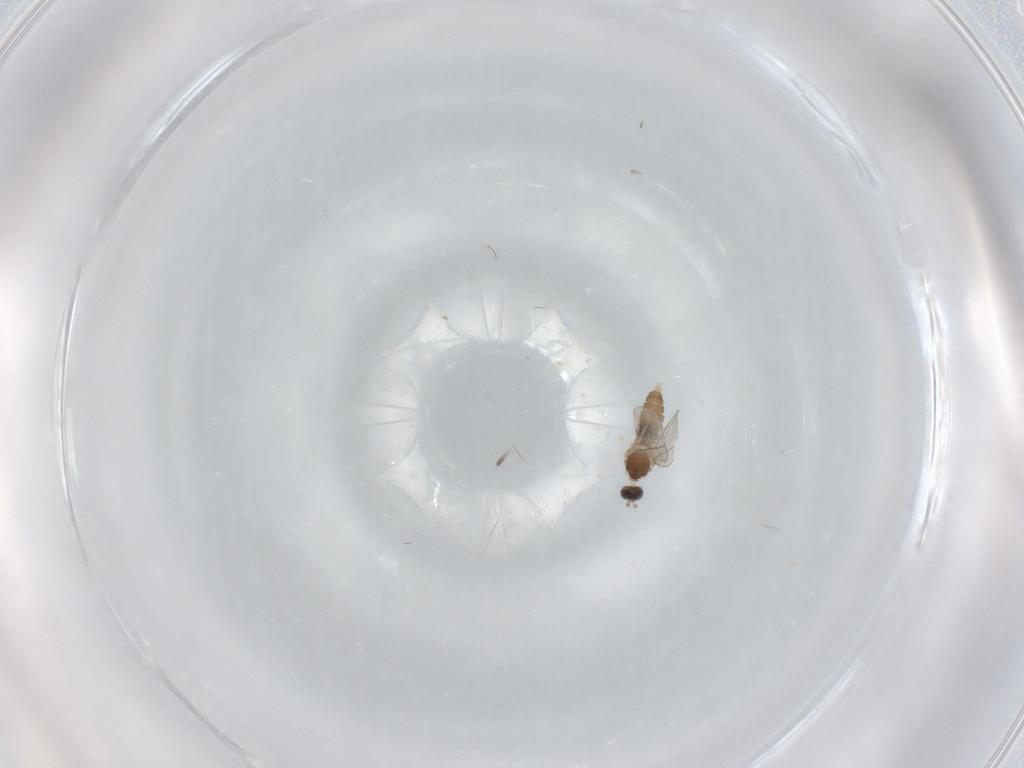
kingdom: Animalia
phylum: Arthropoda
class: Insecta
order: Diptera
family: Cecidomyiidae
